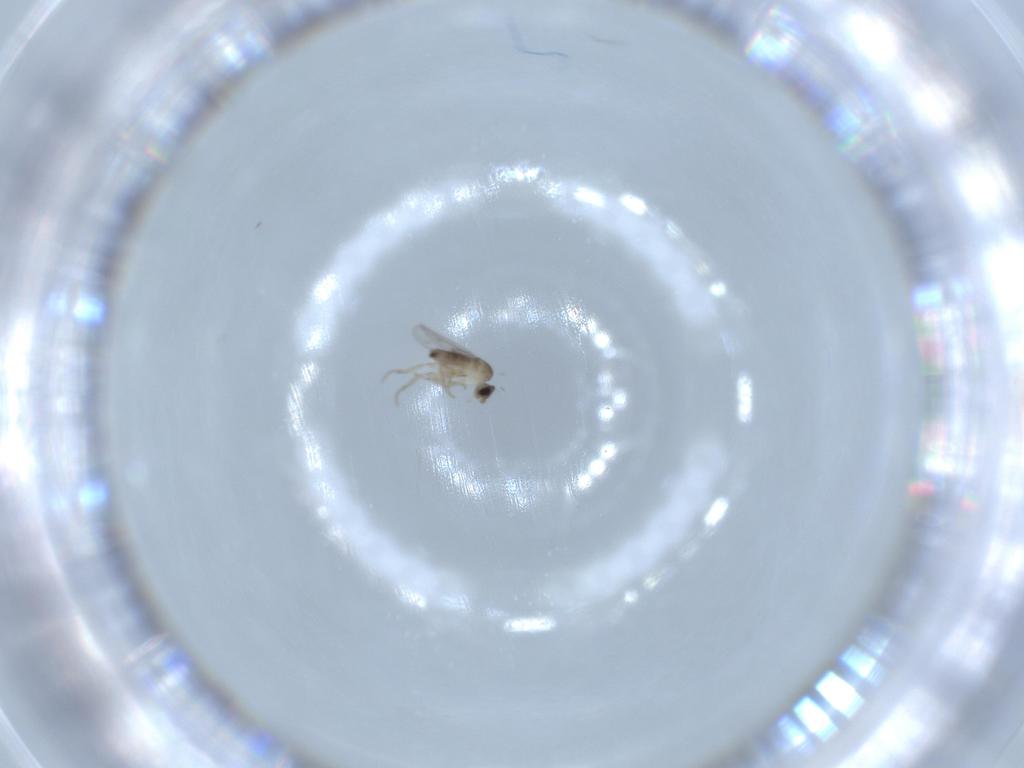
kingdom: Animalia
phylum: Arthropoda
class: Insecta
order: Diptera
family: Phoridae
